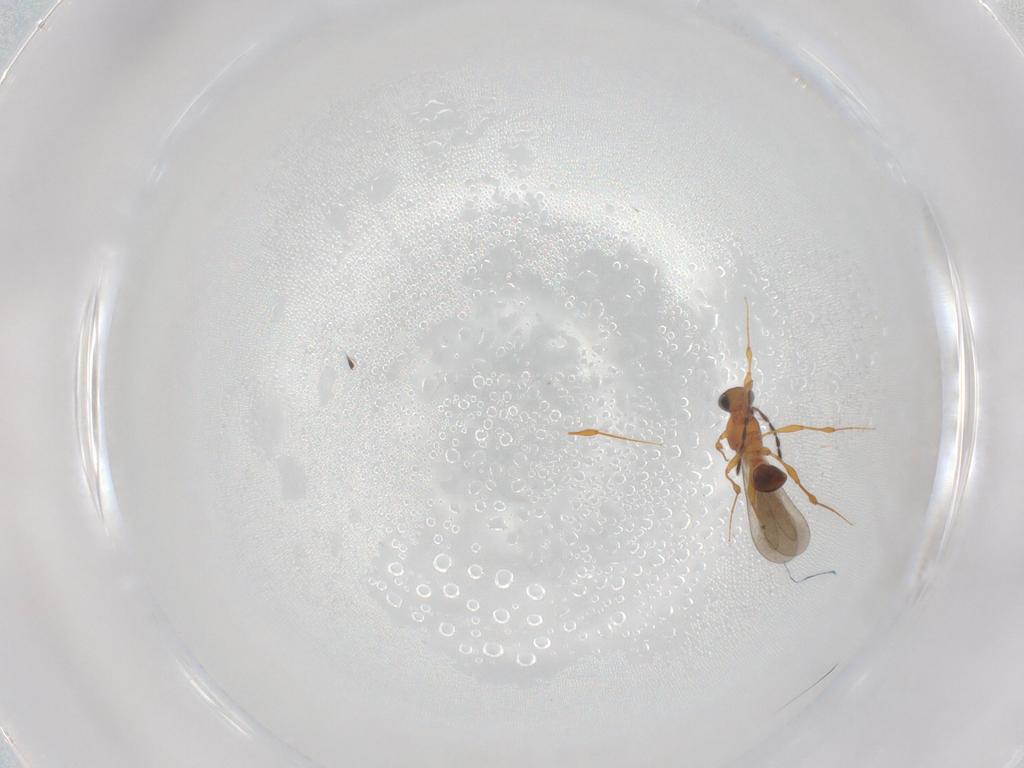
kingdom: Animalia
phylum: Arthropoda
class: Insecta
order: Hymenoptera
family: Platygastridae
